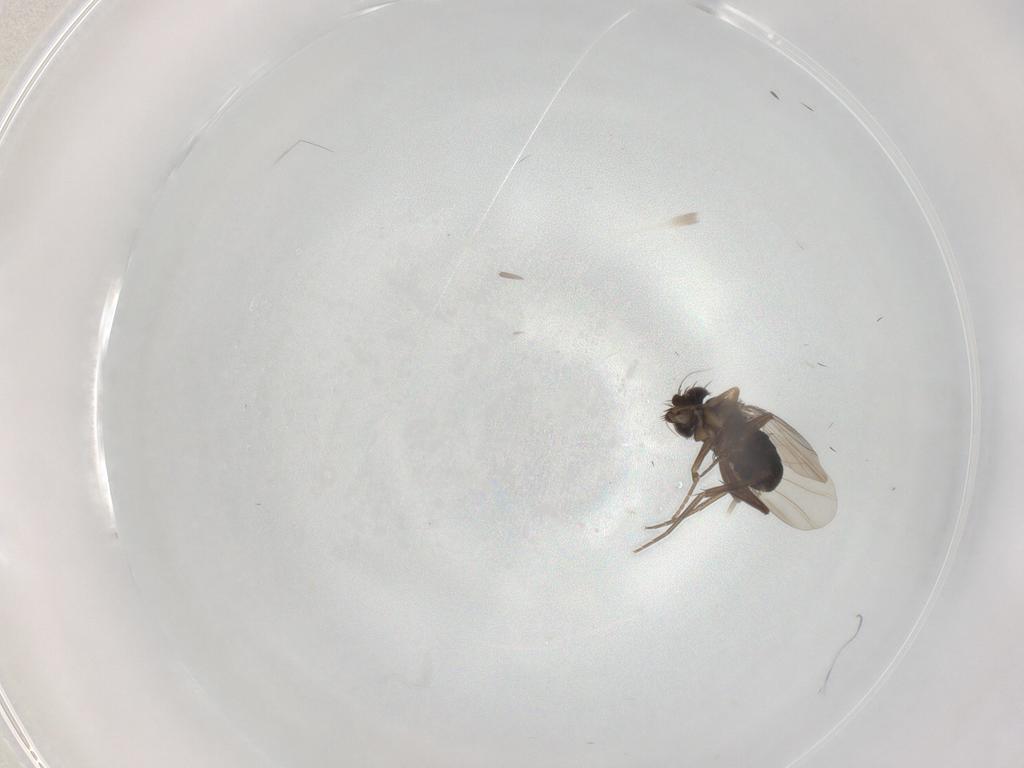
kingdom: Animalia
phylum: Arthropoda
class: Insecta
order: Diptera
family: Phoridae
